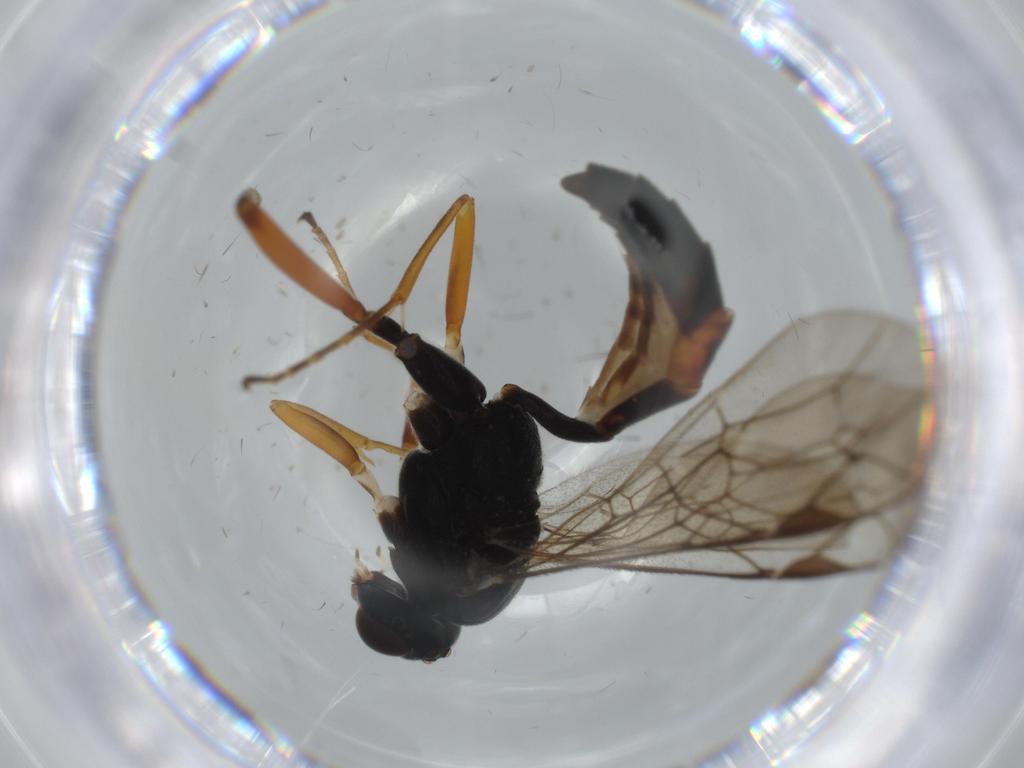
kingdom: Animalia
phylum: Arthropoda
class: Insecta
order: Hymenoptera
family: Ichneumonidae
